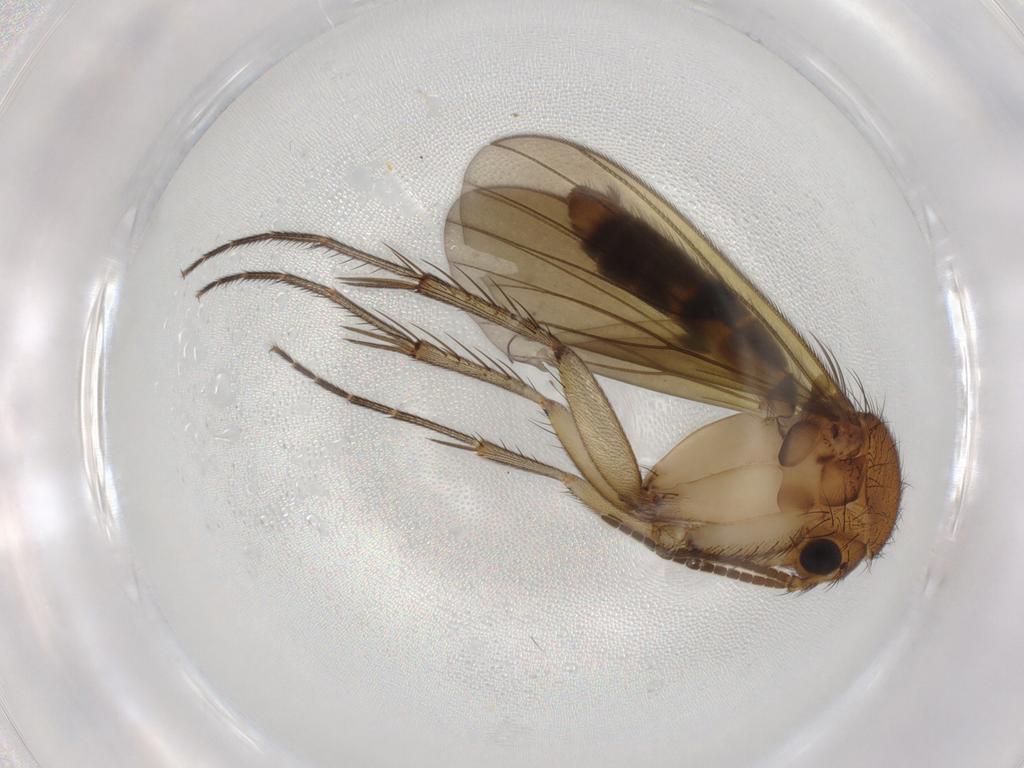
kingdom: Animalia
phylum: Arthropoda
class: Insecta
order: Diptera
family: Psychodidae
